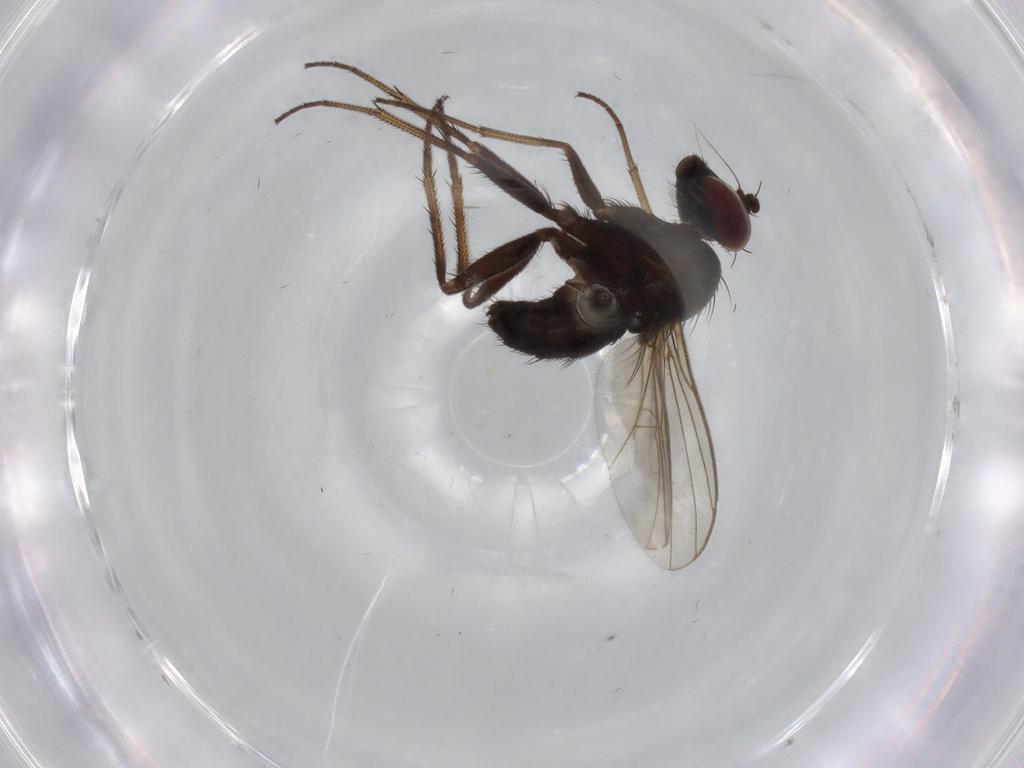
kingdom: Animalia
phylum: Arthropoda
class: Insecta
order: Diptera
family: Dolichopodidae
